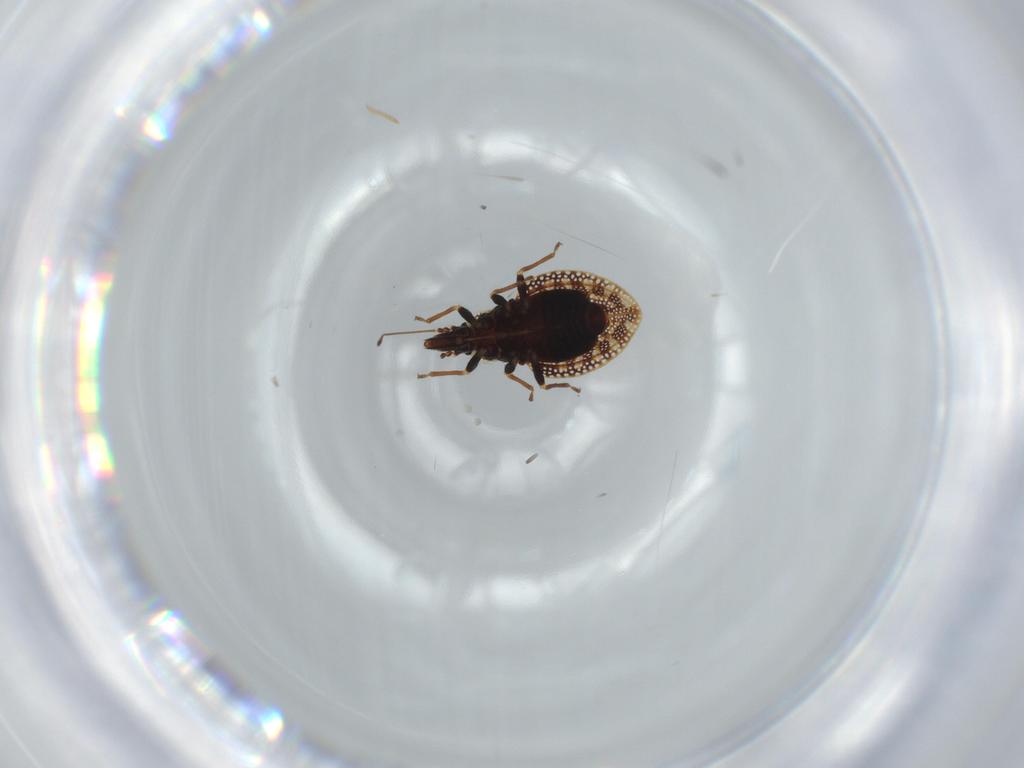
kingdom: Animalia
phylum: Arthropoda
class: Insecta
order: Hemiptera
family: Tingidae
